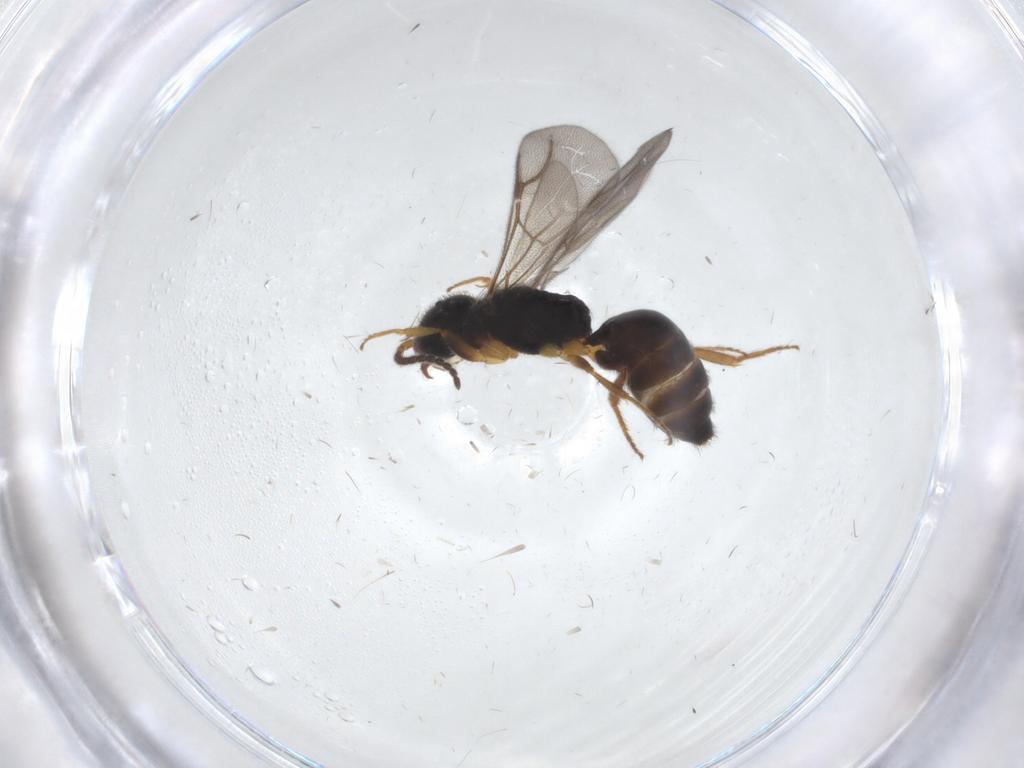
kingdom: Animalia
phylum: Arthropoda
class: Insecta
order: Hymenoptera
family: Bethylidae
